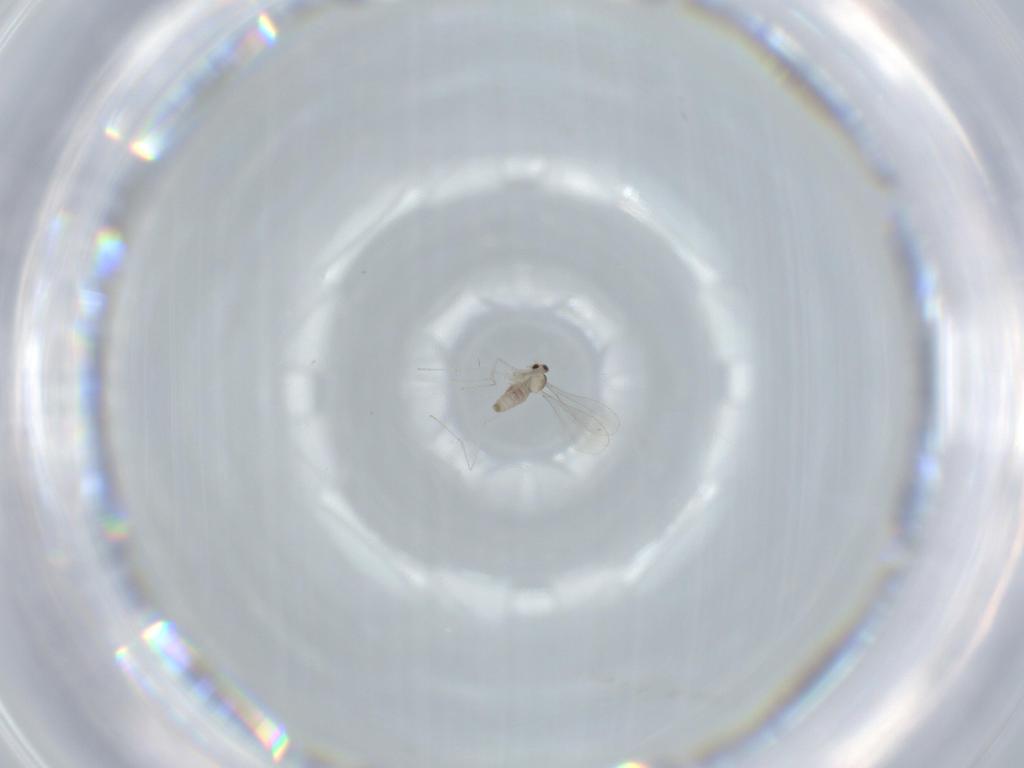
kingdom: Animalia
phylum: Arthropoda
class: Insecta
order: Diptera
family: Cecidomyiidae
